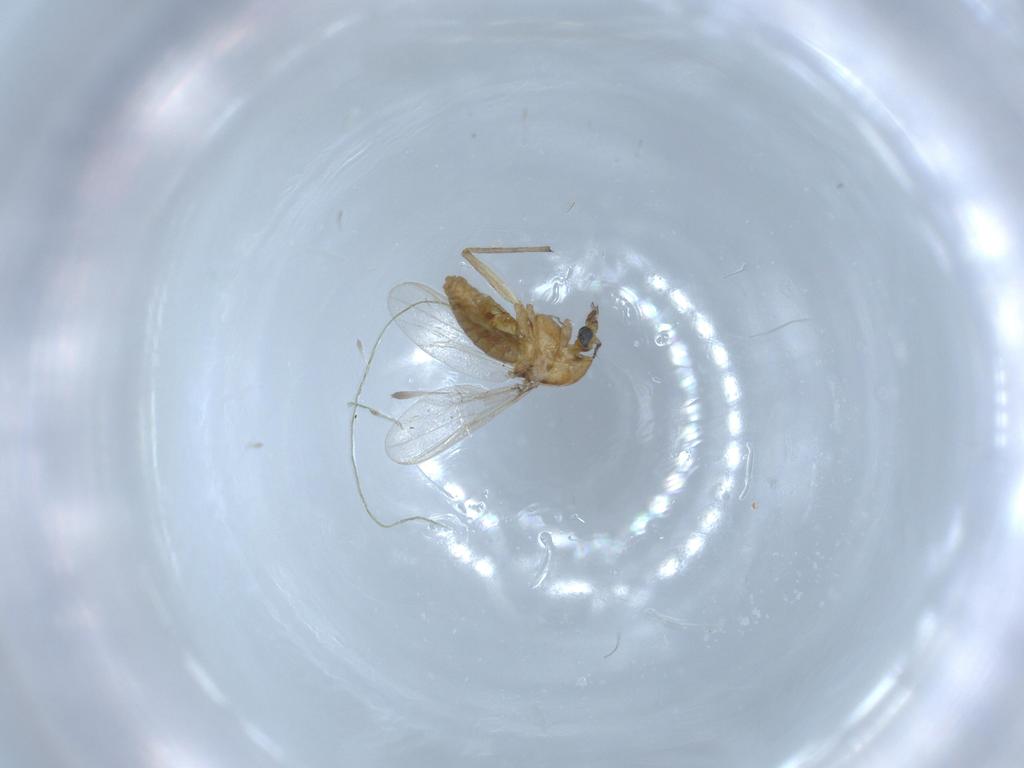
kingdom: Animalia
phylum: Arthropoda
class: Insecta
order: Diptera
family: Chironomidae
